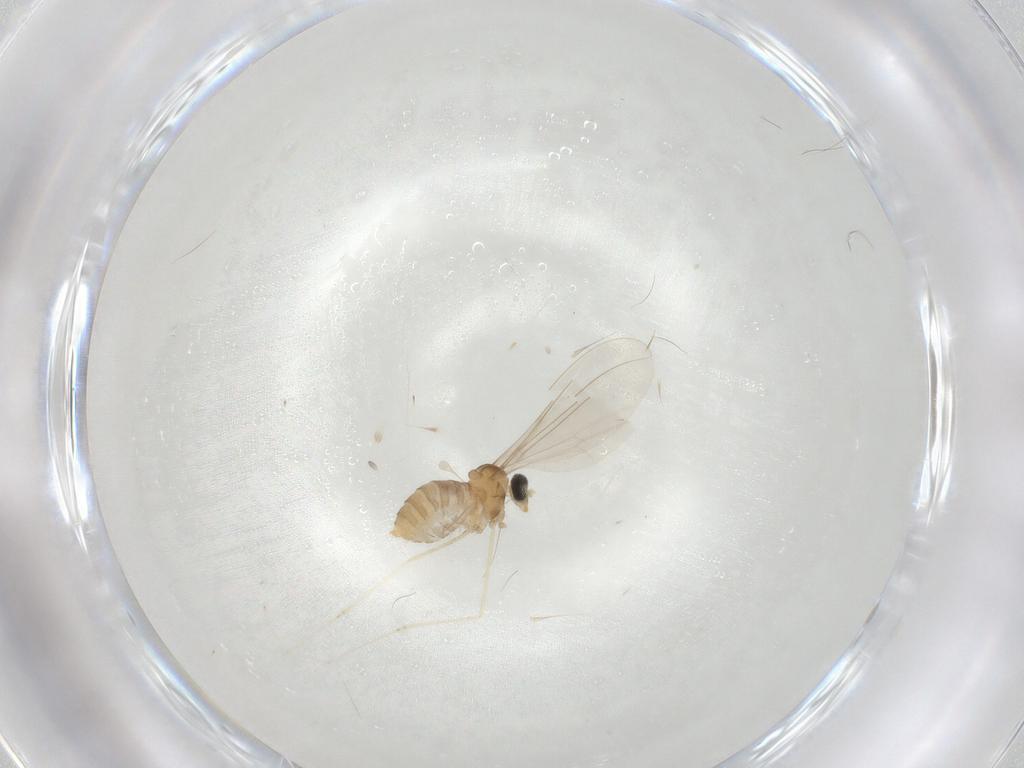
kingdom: Animalia
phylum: Arthropoda
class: Insecta
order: Diptera
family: Cecidomyiidae
